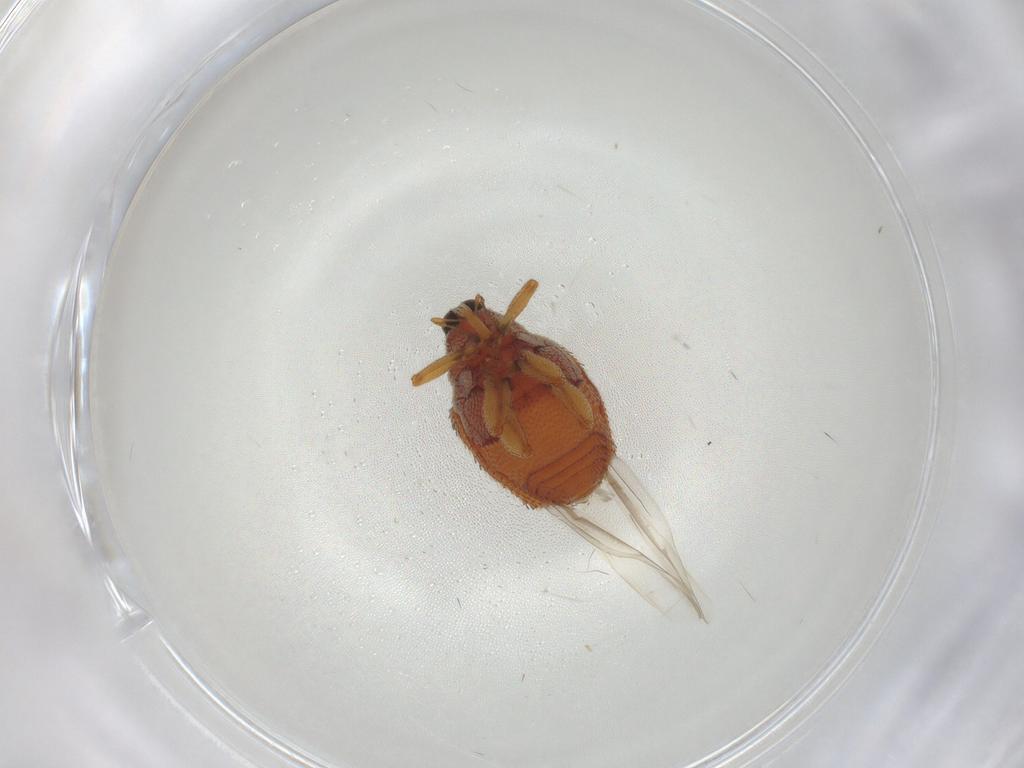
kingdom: Animalia
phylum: Arthropoda
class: Insecta
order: Coleoptera
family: Curculionidae
